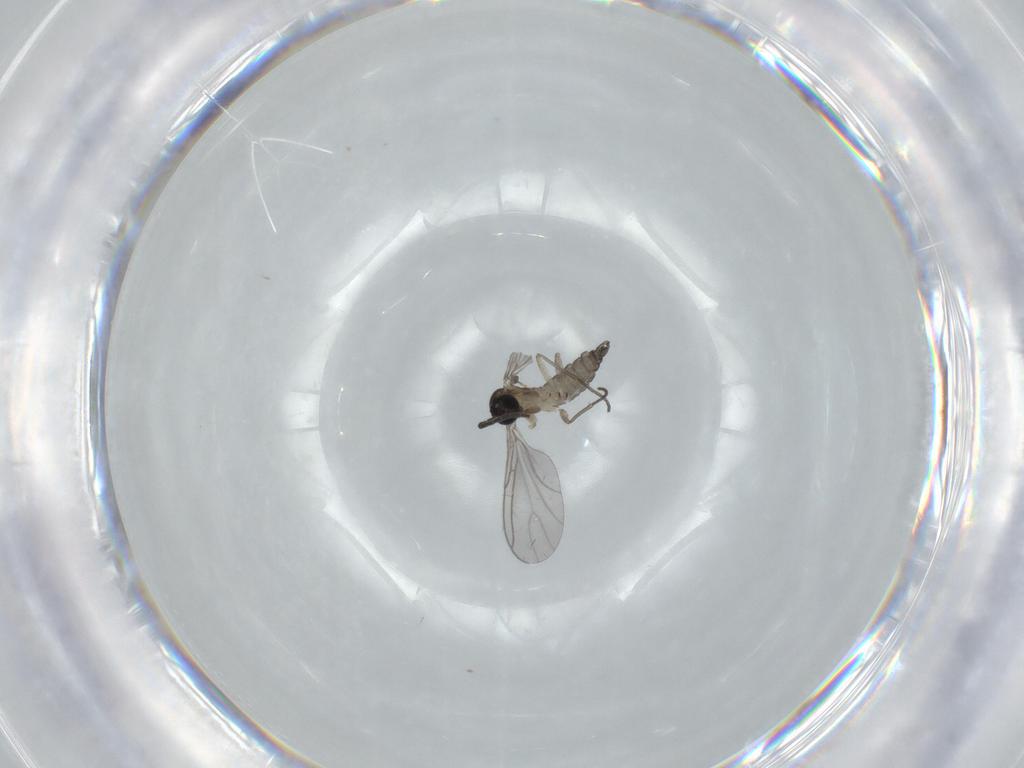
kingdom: Animalia
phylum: Arthropoda
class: Insecta
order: Diptera
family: Sciaridae
